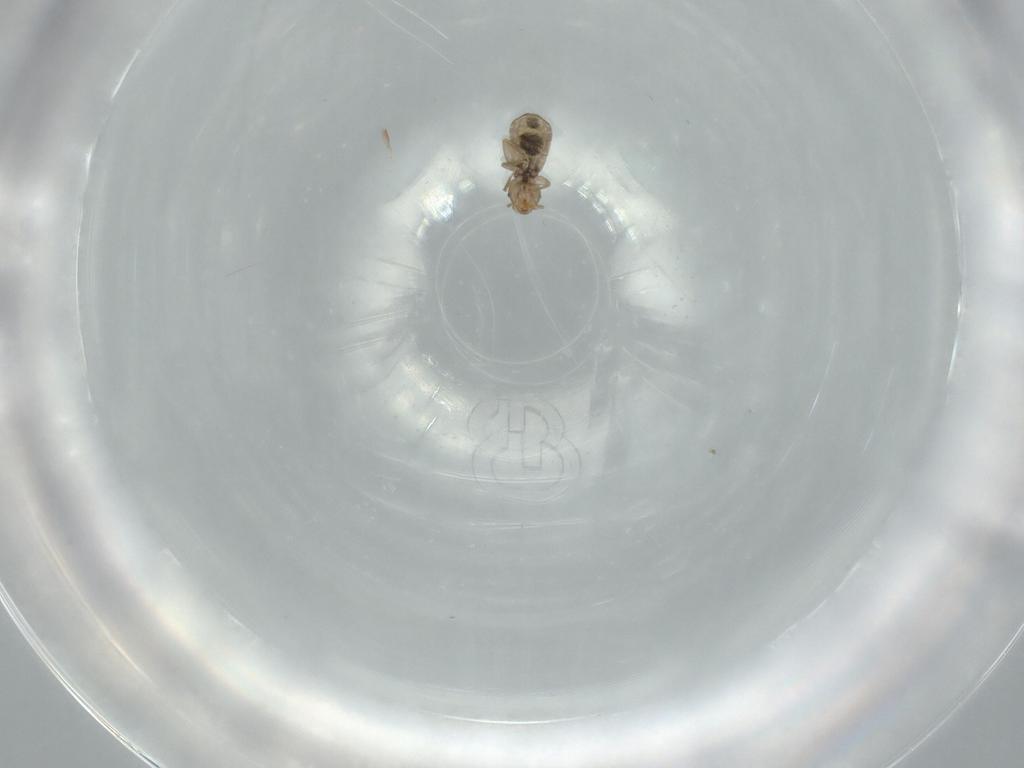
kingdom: Animalia
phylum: Arthropoda
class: Insecta
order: Psocodea
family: Liposcelididae
